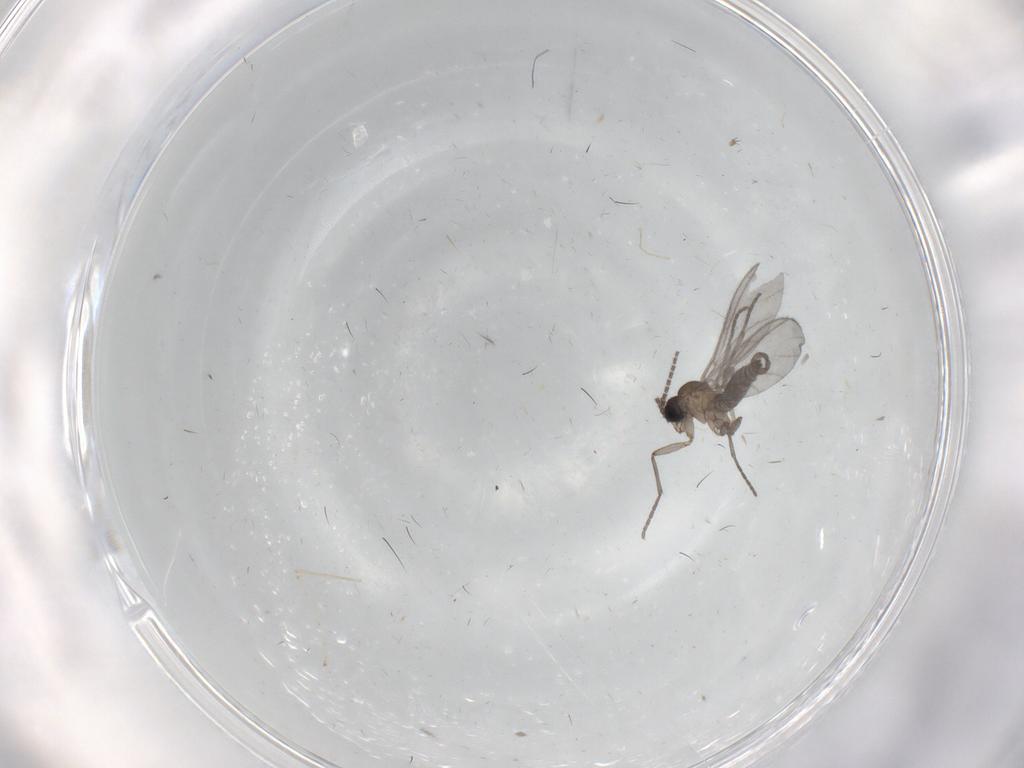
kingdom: Animalia
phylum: Arthropoda
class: Insecta
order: Diptera
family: Sciaridae
